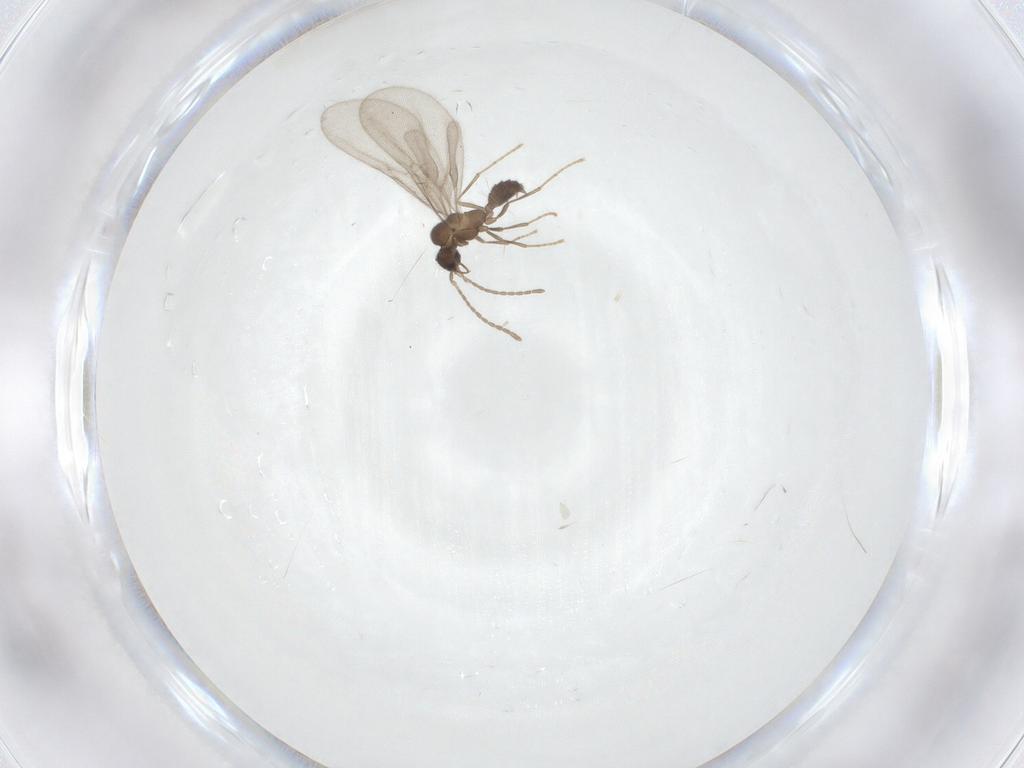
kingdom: Animalia
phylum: Arthropoda
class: Insecta
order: Hymenoptera
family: Formicidae
